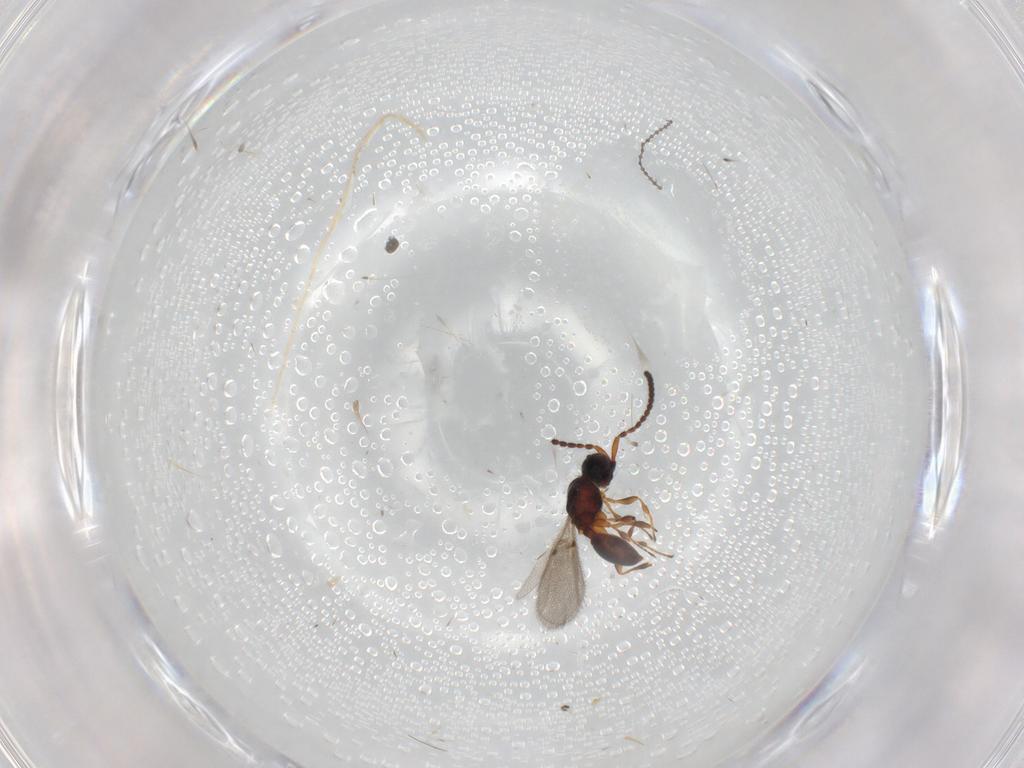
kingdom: Animalia
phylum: Arthropoda
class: Insecta
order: Hymenoptera
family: Diapriidae
